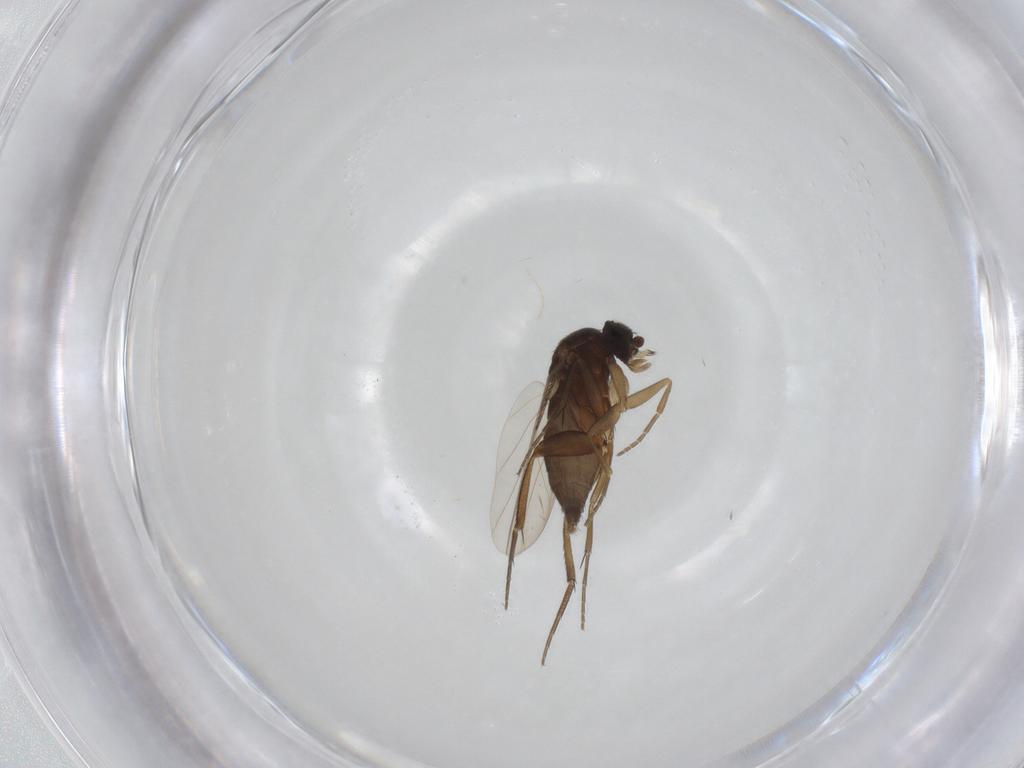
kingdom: Animalia
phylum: Arthropoda
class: Insecta
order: Diptera
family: Phoridae
